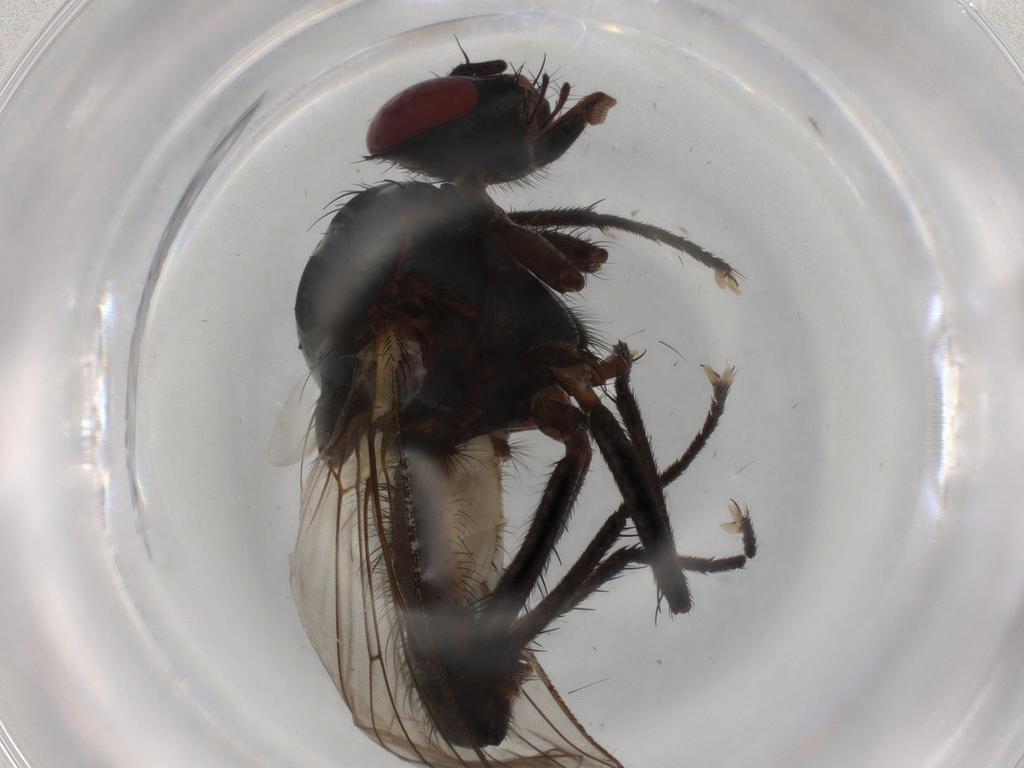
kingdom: Animalia
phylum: Arthropoda
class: Insecta
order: Diptera
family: Anthomyiidae
